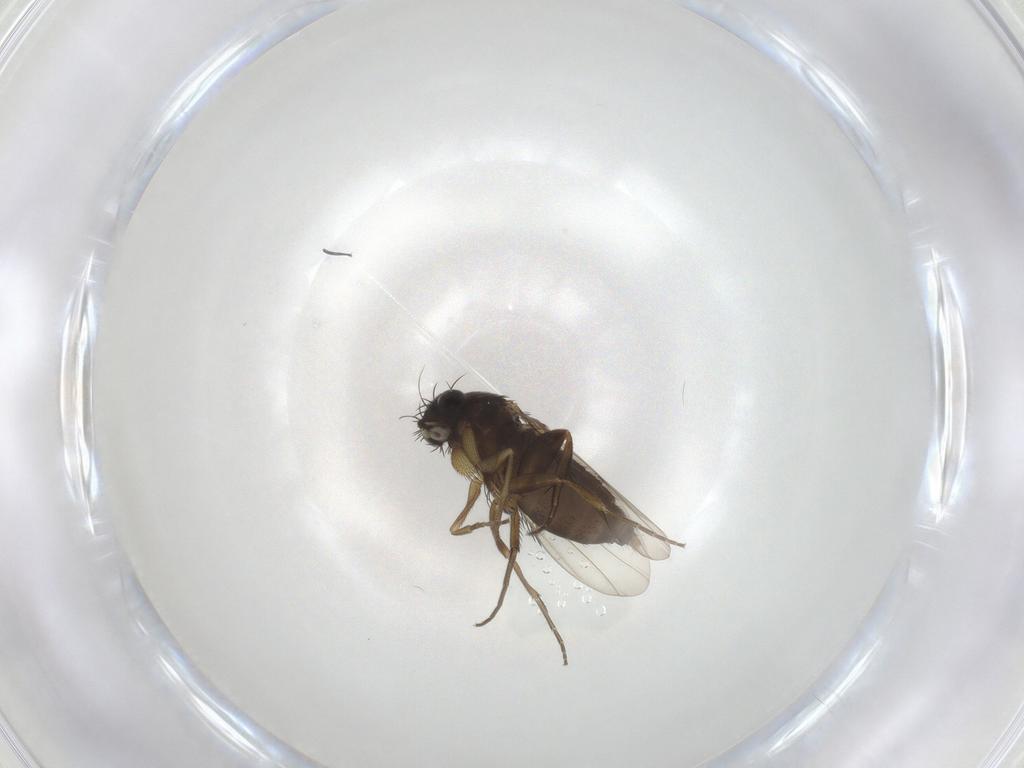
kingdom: Animalia
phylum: Arthropoda
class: Insecta
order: Diptera
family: Phoridae
